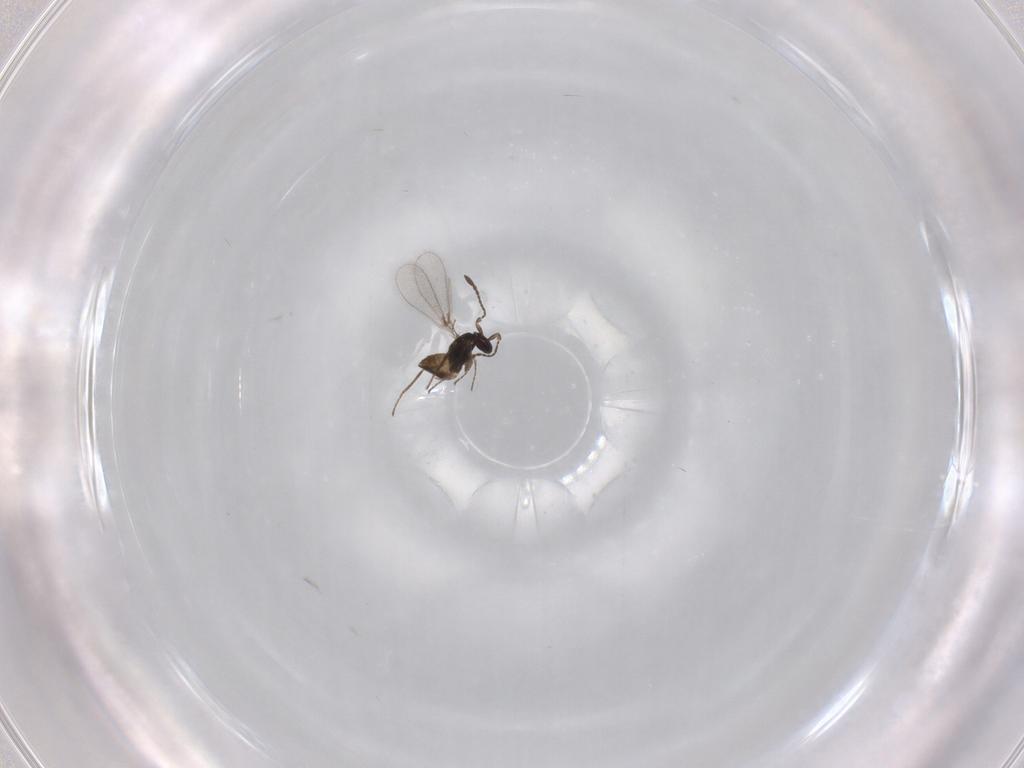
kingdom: Animalia
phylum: Arthropoda
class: Insecta
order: Hymenoptera
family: Mymaridae
